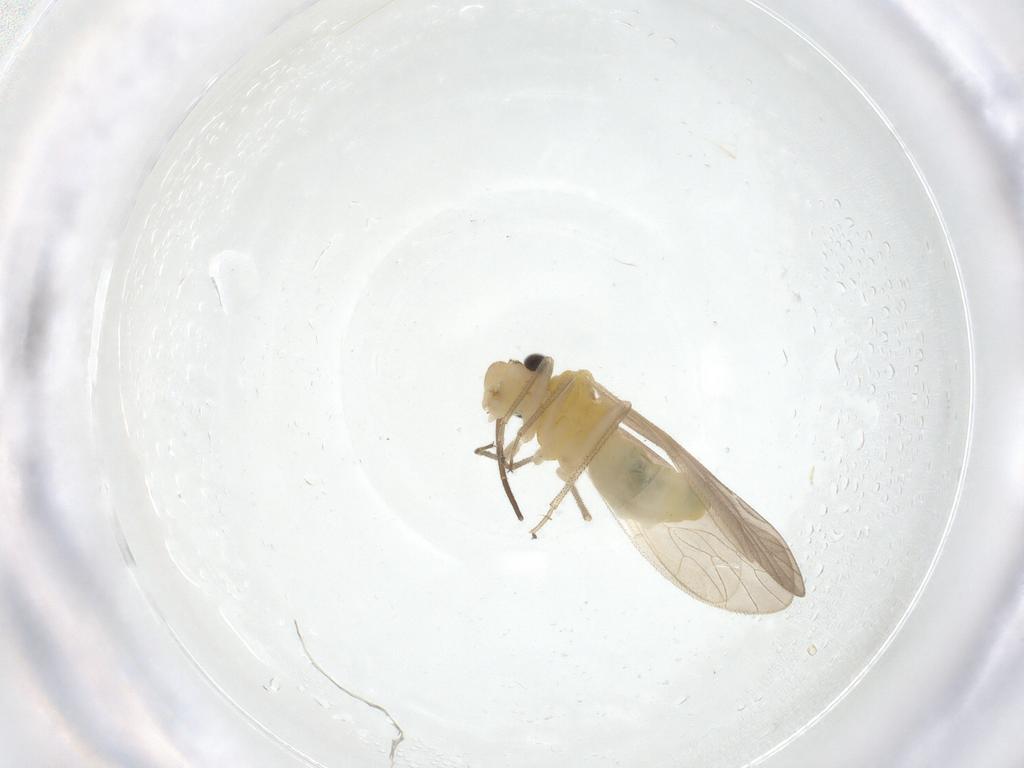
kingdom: Animalia
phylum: Arthropoda
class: Insecta
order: Psocodea
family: Caeciliusidae
